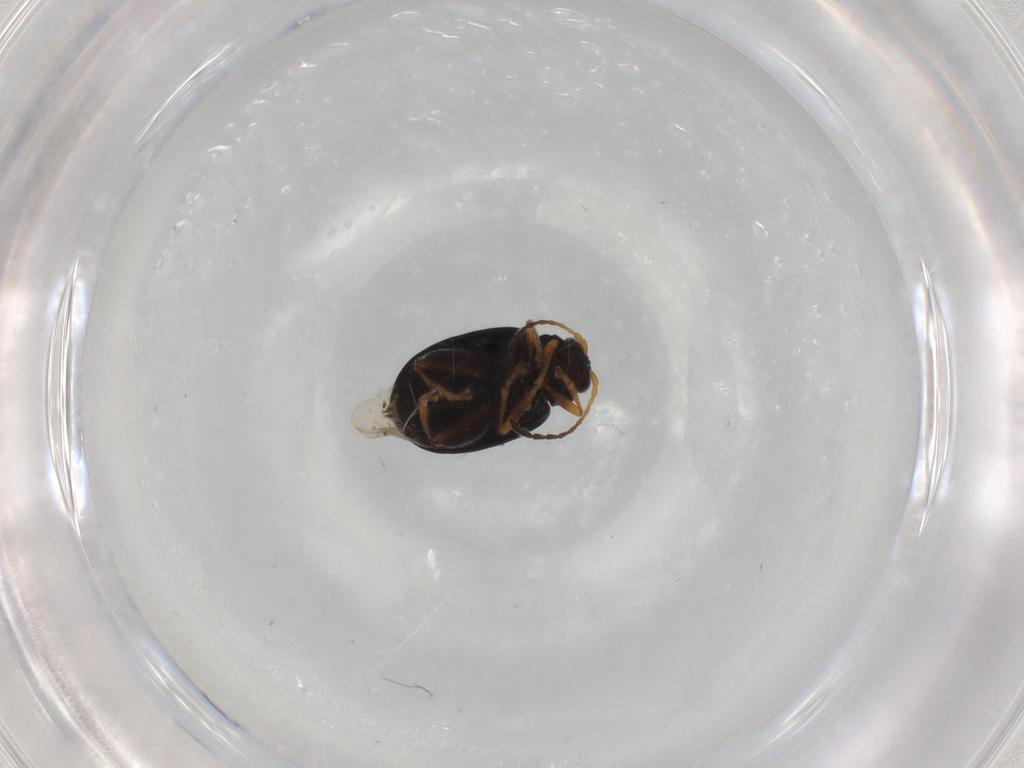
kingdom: Animalia
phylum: Arthropoda
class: Insecta
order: Coleoptera
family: Chrysomelidae
